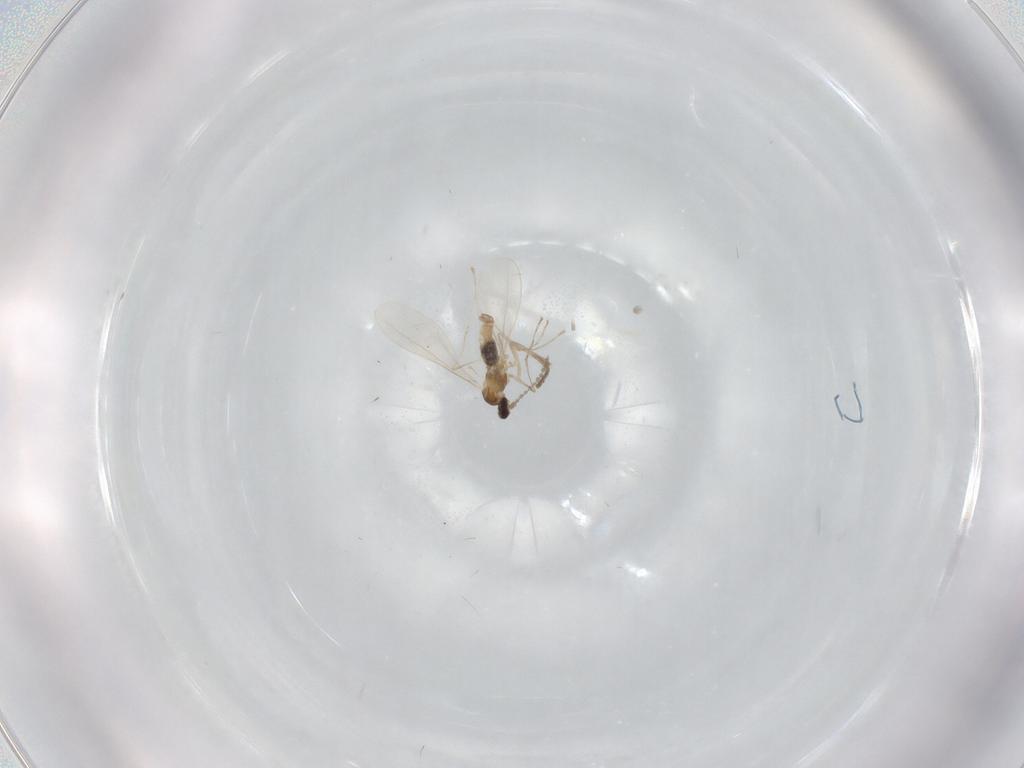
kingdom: Animalia
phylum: Arthropoda
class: Insecta
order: Diptera
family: Cecidomyiidae
